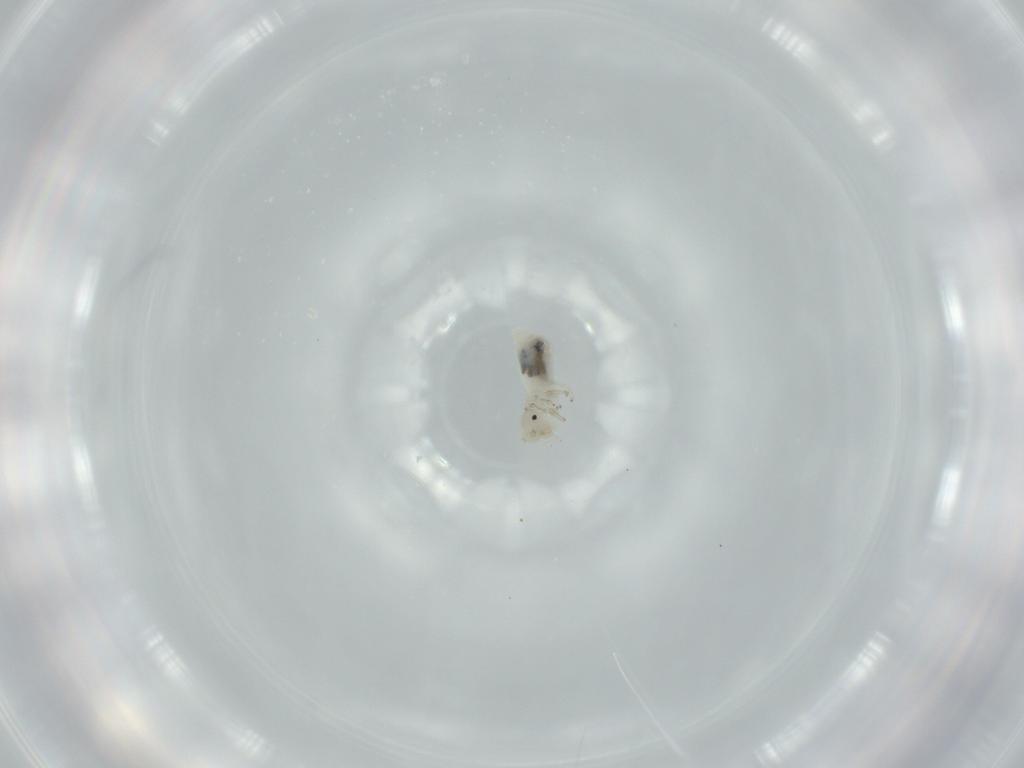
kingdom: Animalia
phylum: Arthropoda
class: Insecta
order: Psocodea
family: Caeciliusidae
